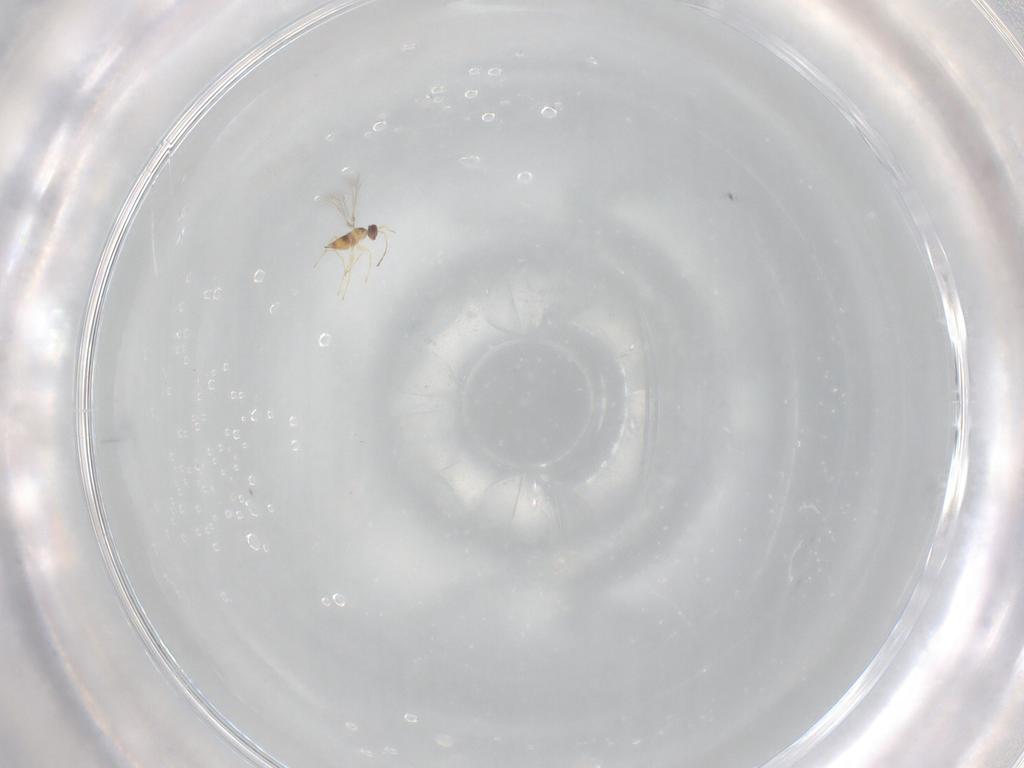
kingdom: Animalia
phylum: Arthropoda
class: Insecta
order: Hymenoptera
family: Mymaridae
